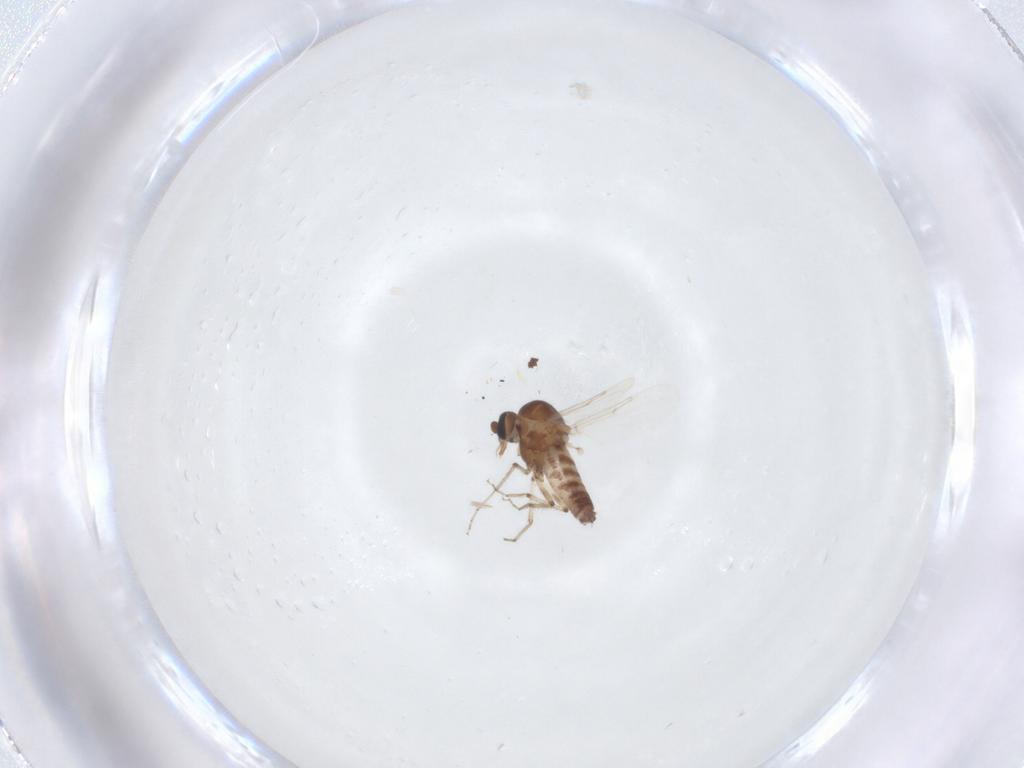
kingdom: Animalia
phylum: Arthropoda
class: Insecta
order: Diptera
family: Ceratopogonidae
